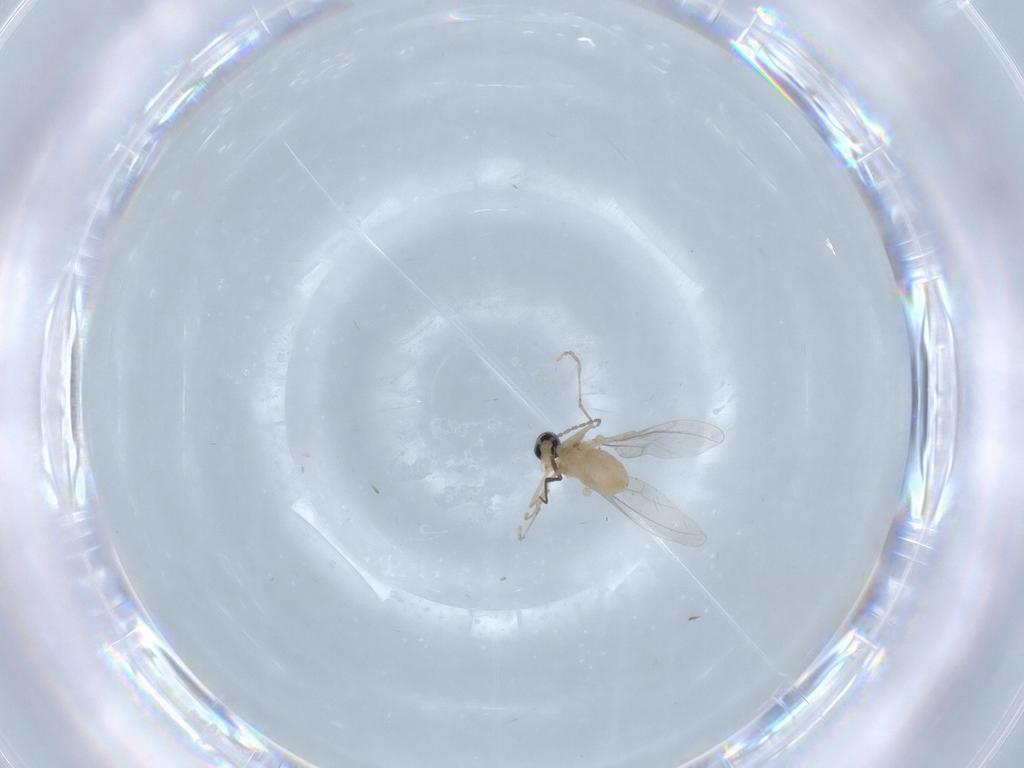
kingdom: Animalia
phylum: Arthropoda
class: Insecta
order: Diptera
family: Cecidomyiidae
